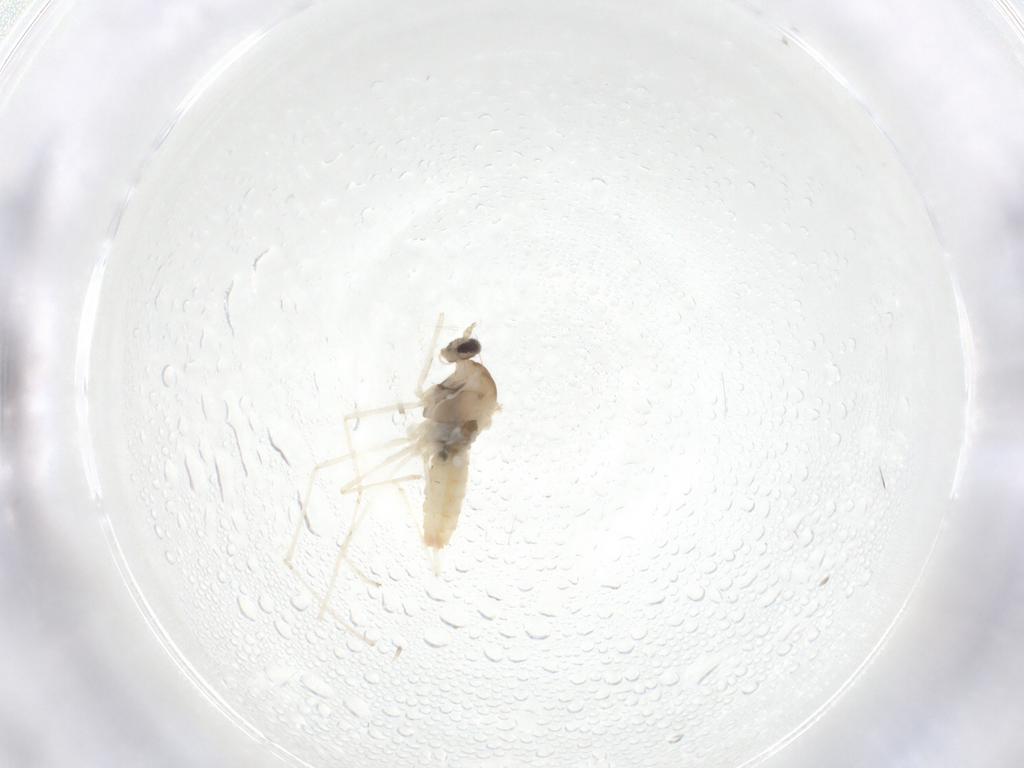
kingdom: Animalia
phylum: Arthropoda
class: Insecta
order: Diptera
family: Cecidomyiidae
